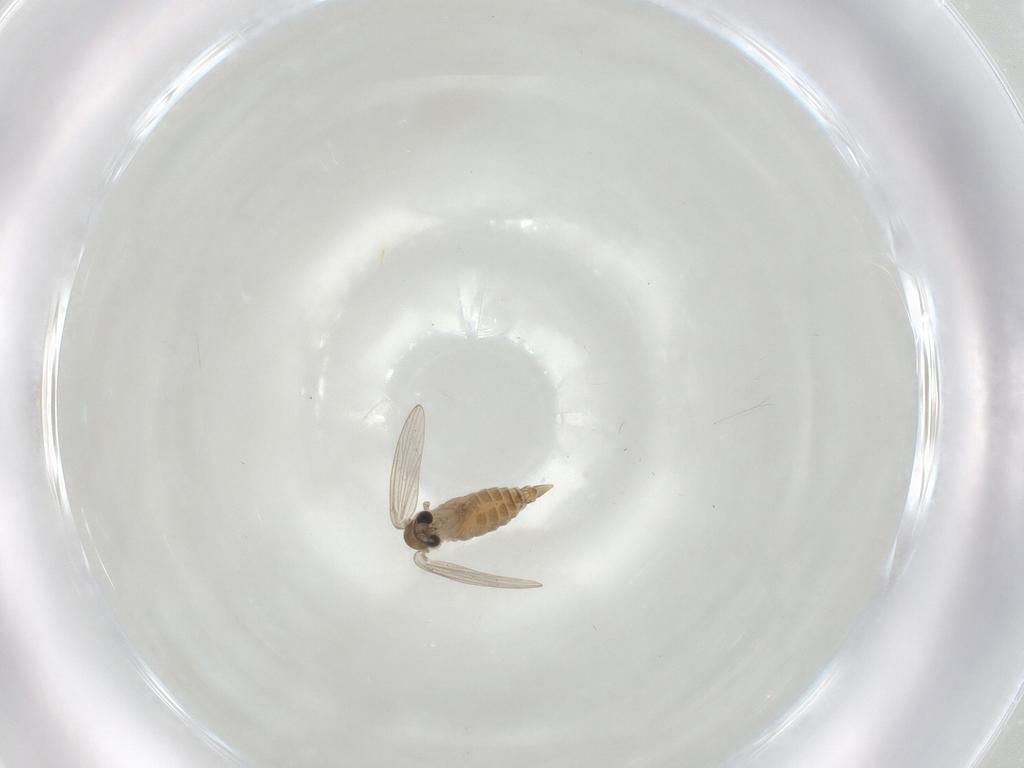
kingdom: Animalia
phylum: Arthropoda
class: Insecta
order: Diptera
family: Psychodidae
